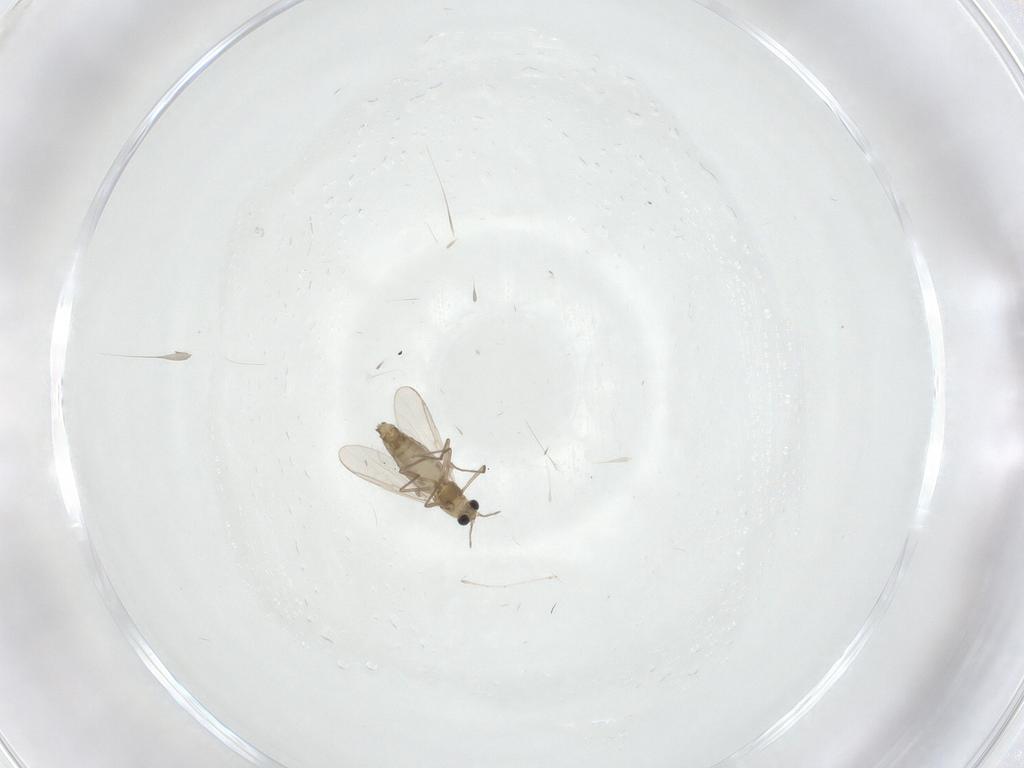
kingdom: Animalia
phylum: Arthropoda
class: Insecta
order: Diptera
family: Chironomidae
